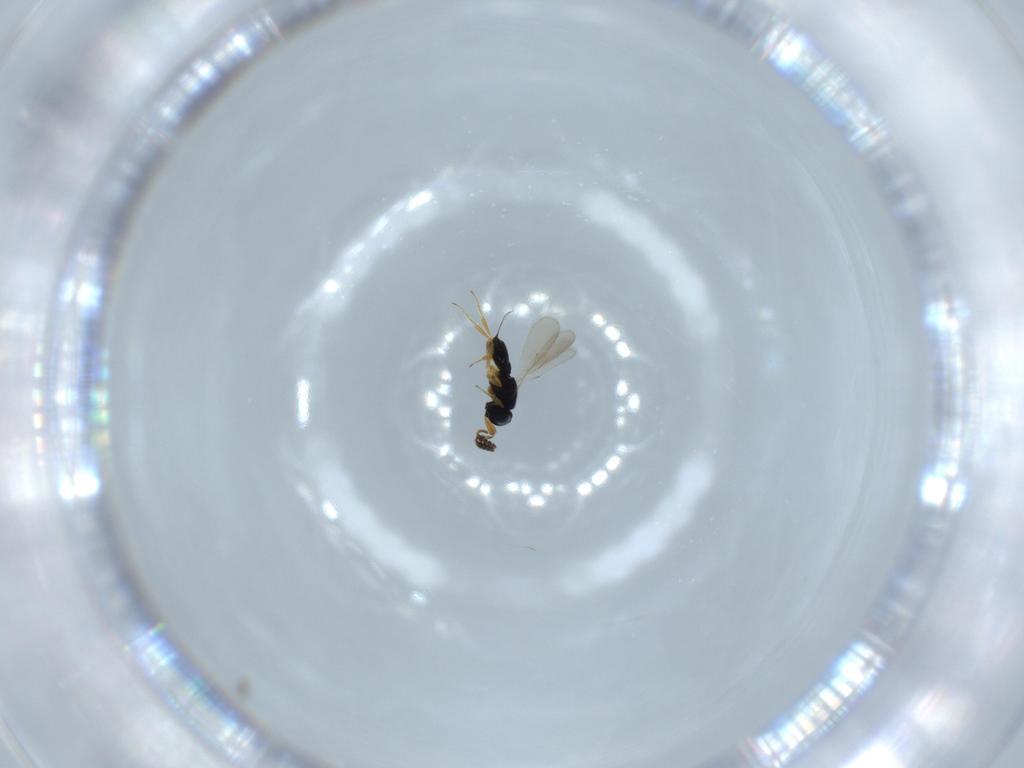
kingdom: Animalia
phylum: Arthropoda
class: Insecta
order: Hymenoptera
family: Scelionidae
